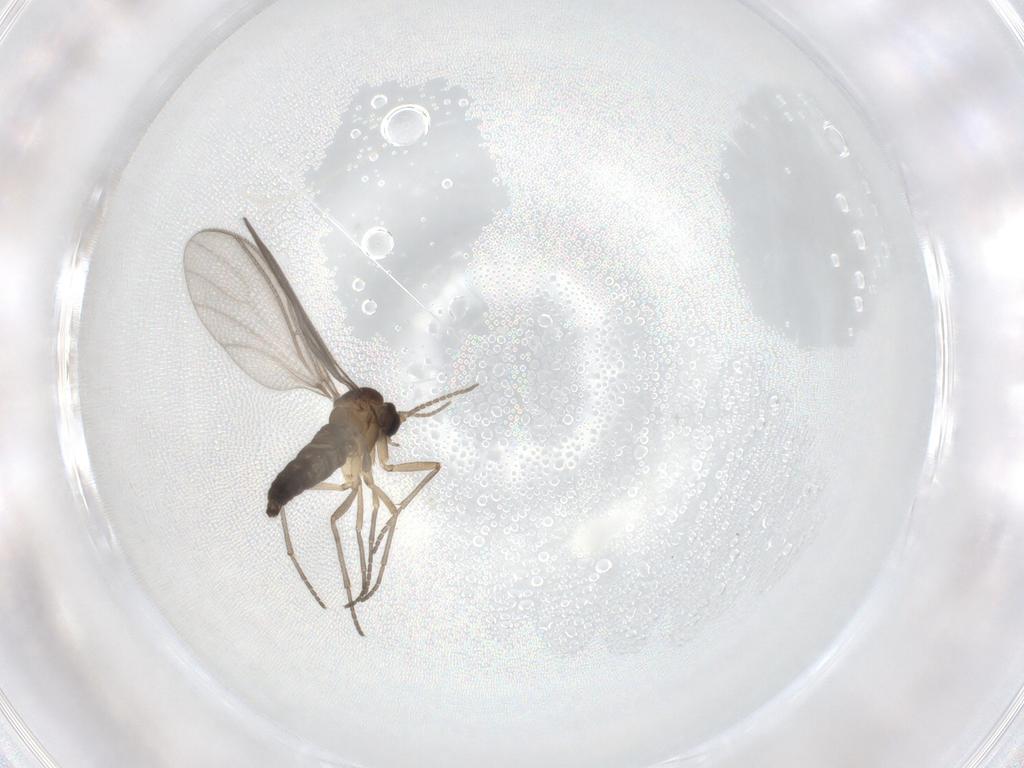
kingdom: Animalia
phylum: Arthropoda
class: Insecta
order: Diptera
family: Sciaridae
